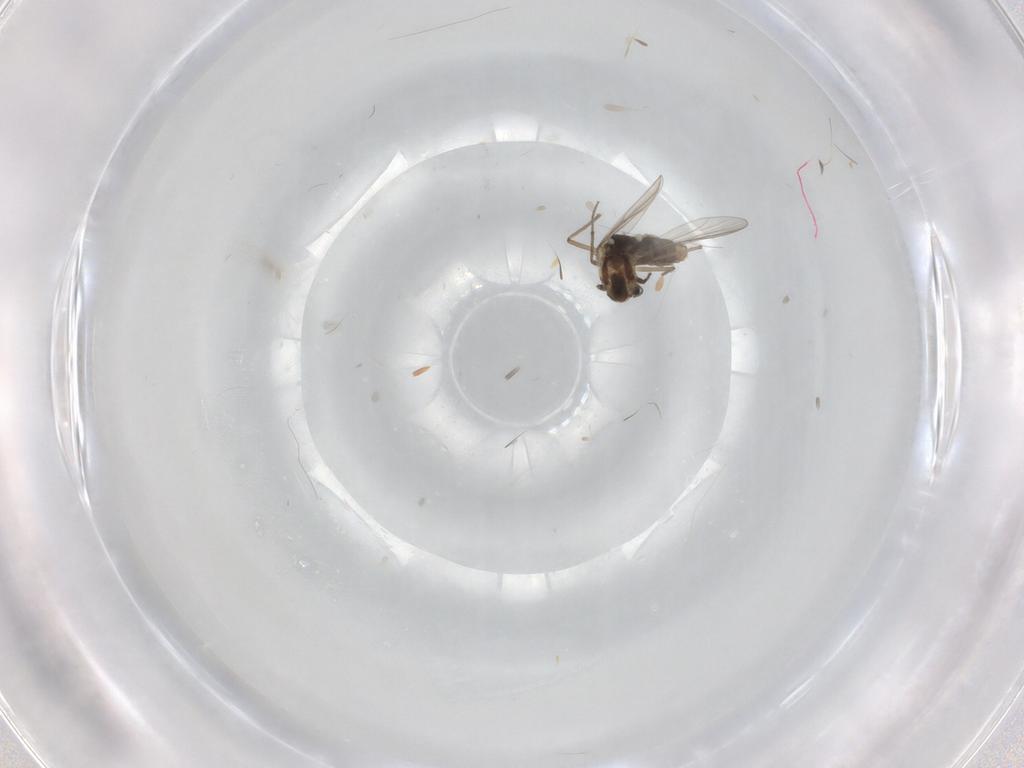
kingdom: Animalia
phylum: Arthropoda
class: Insecta
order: Diptera
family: Chironomidae
